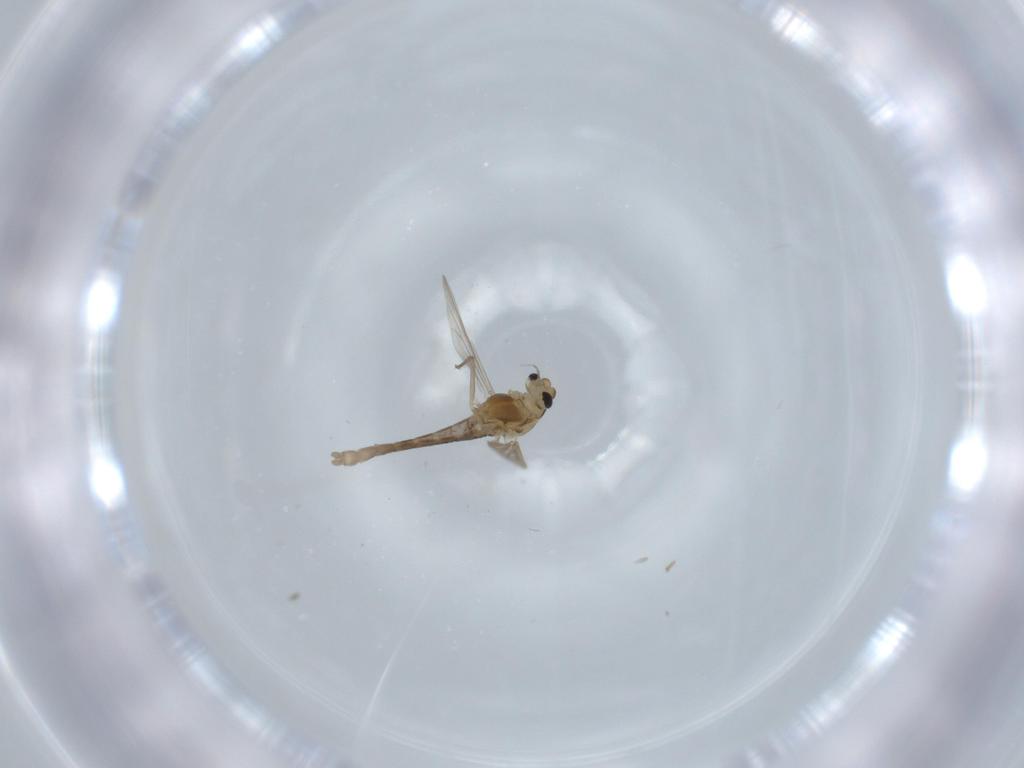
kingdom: Animalia
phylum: Arthropoda
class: Insecta
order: Diptera
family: Chironomidae
